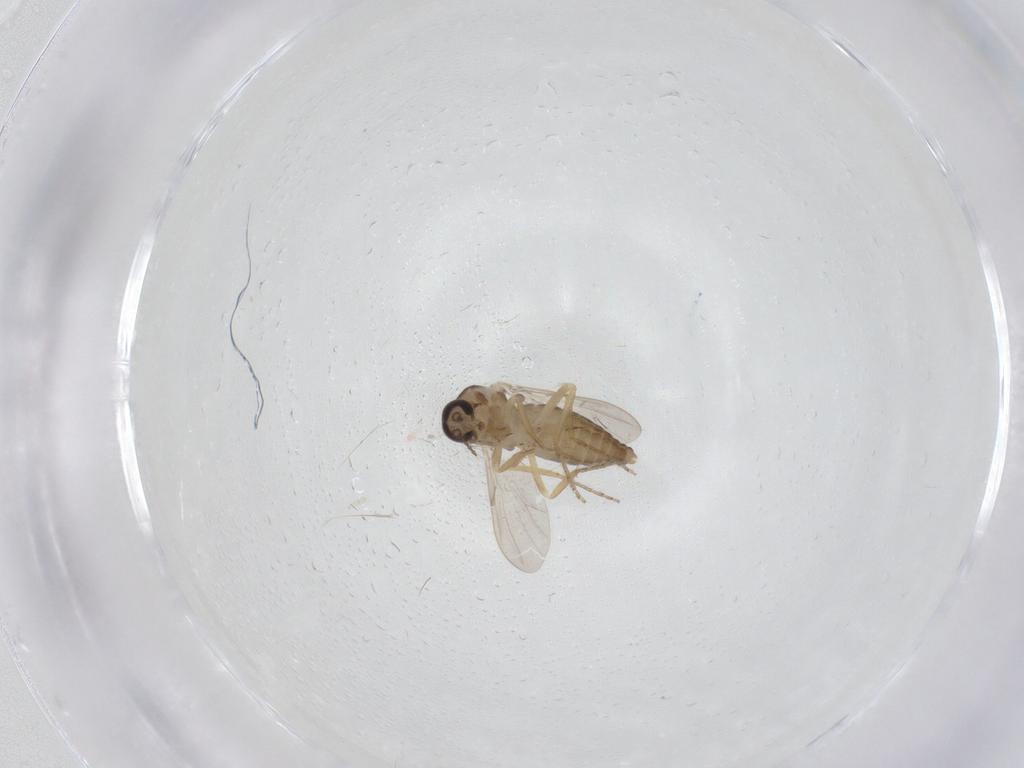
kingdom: Animalia
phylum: Arthropoda
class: Insecta
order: Diptera
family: Ceratopogonidae
